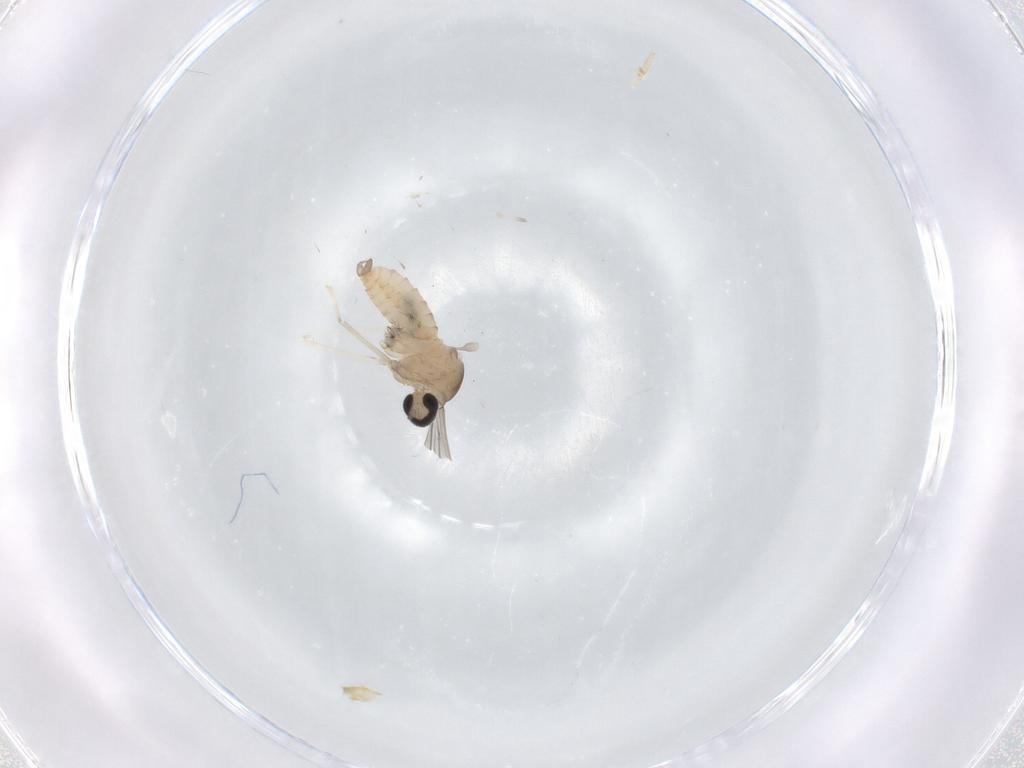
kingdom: Animalia
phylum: Arthropoda
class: Insecta
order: Diptera
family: Cecidomyiidae
